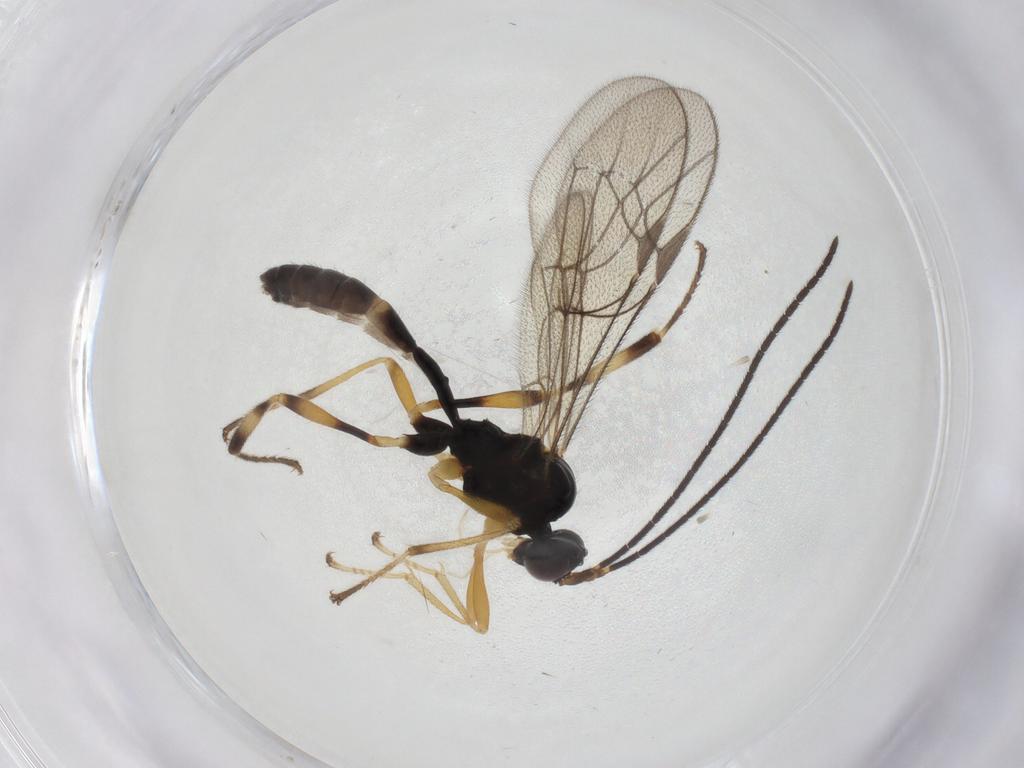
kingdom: Animalia
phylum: Arthropoda
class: Insecta
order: Hymenoptera
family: Ichneumonidae
